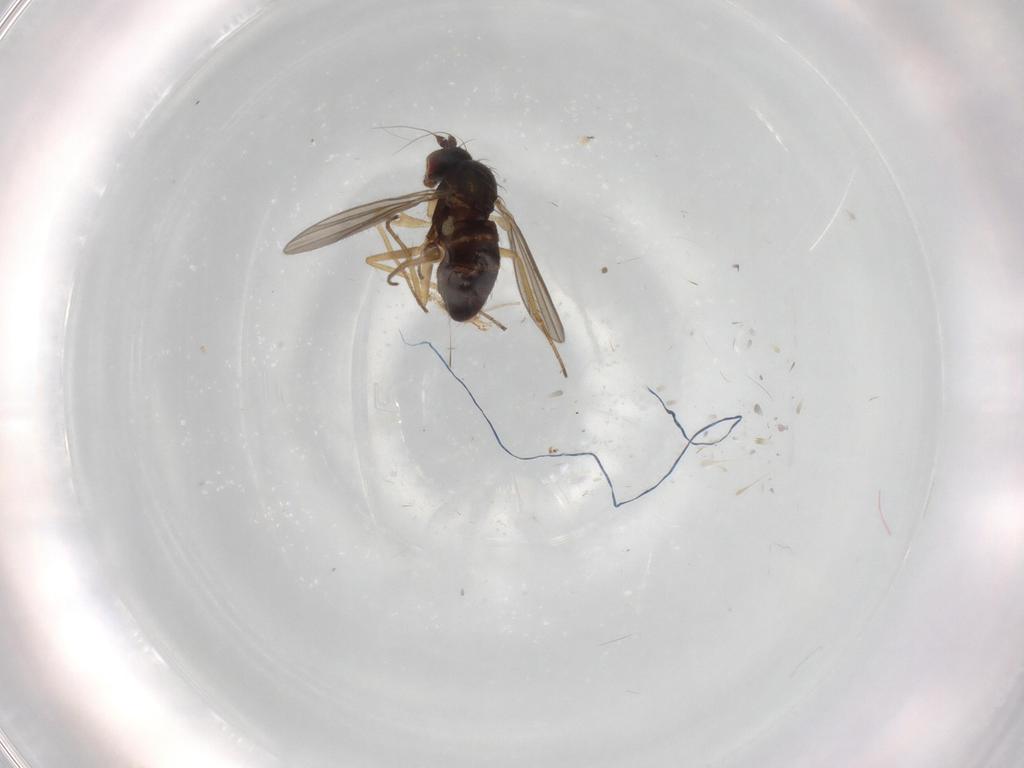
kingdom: Animalia
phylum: Arthropoda
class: Insecta
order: Diptera
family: Dolichopodidae
